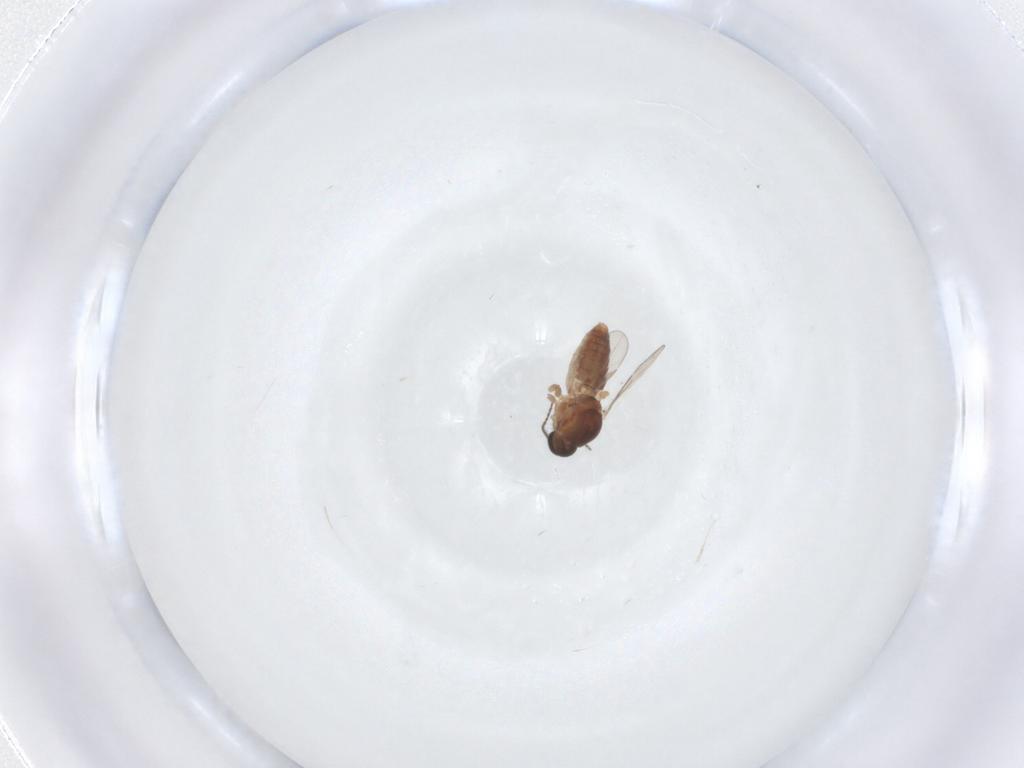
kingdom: Animalia
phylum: Arthropoda
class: Insecta
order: Diptera
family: Ceratopogonidae
